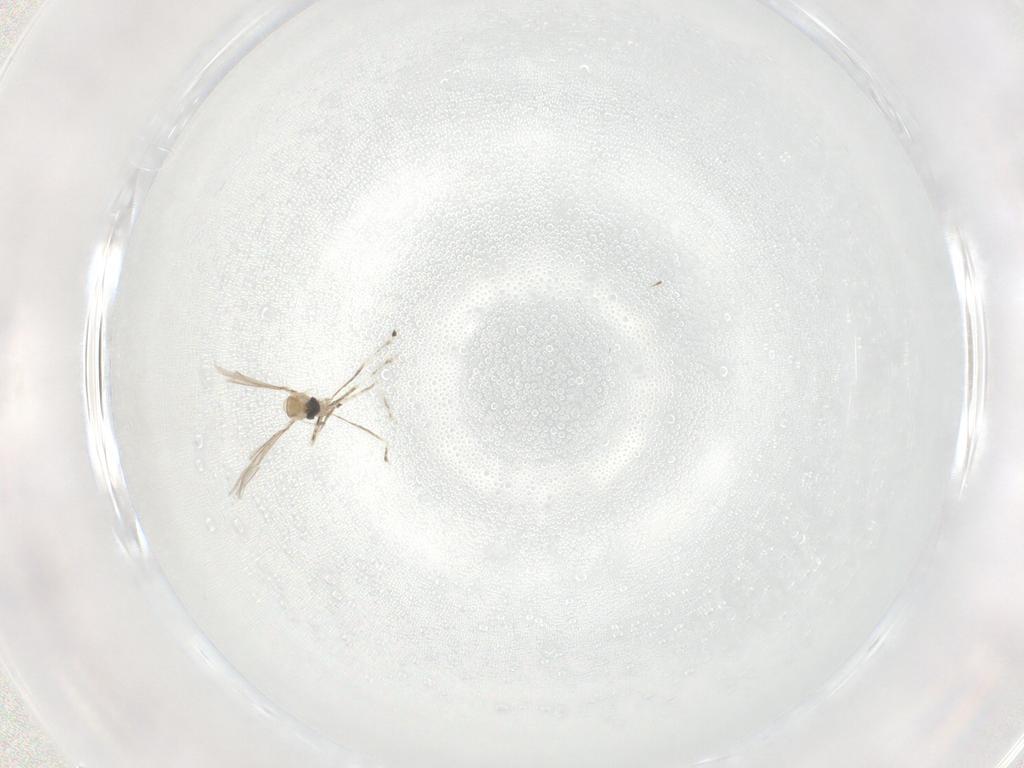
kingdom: Animalia
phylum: Arthropoda
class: Insecta
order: Diptera
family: Cecidomyiidae
